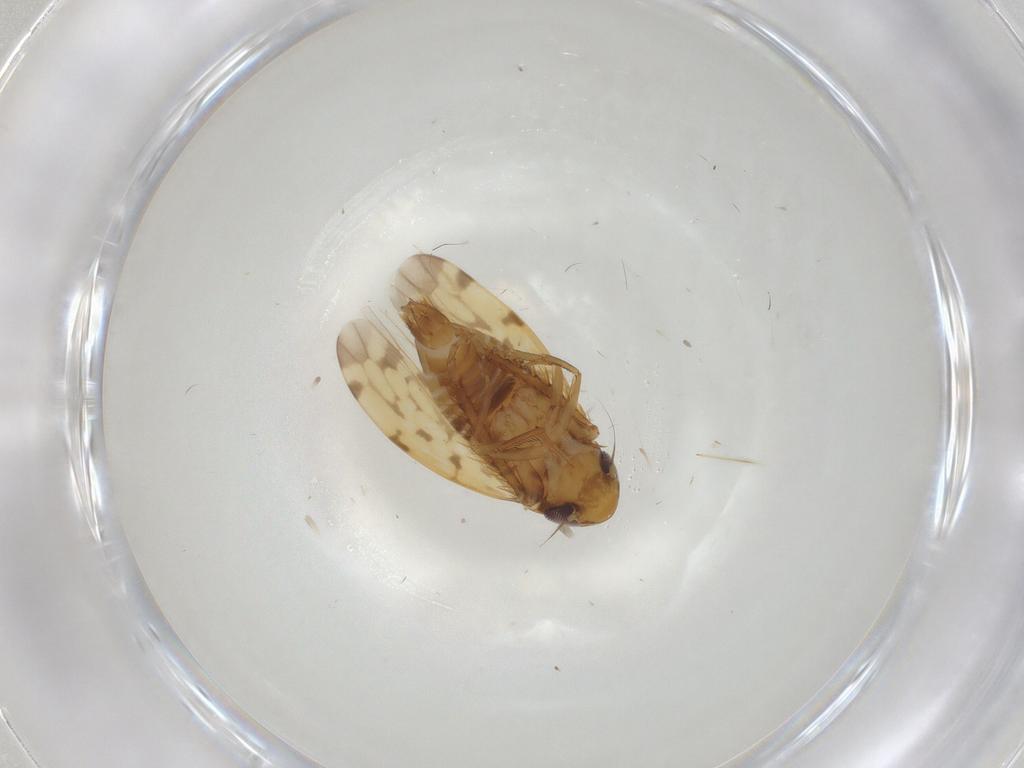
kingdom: Animalia
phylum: Arthropoda
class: Insecta
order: Hemiptera
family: Cicadellidae
